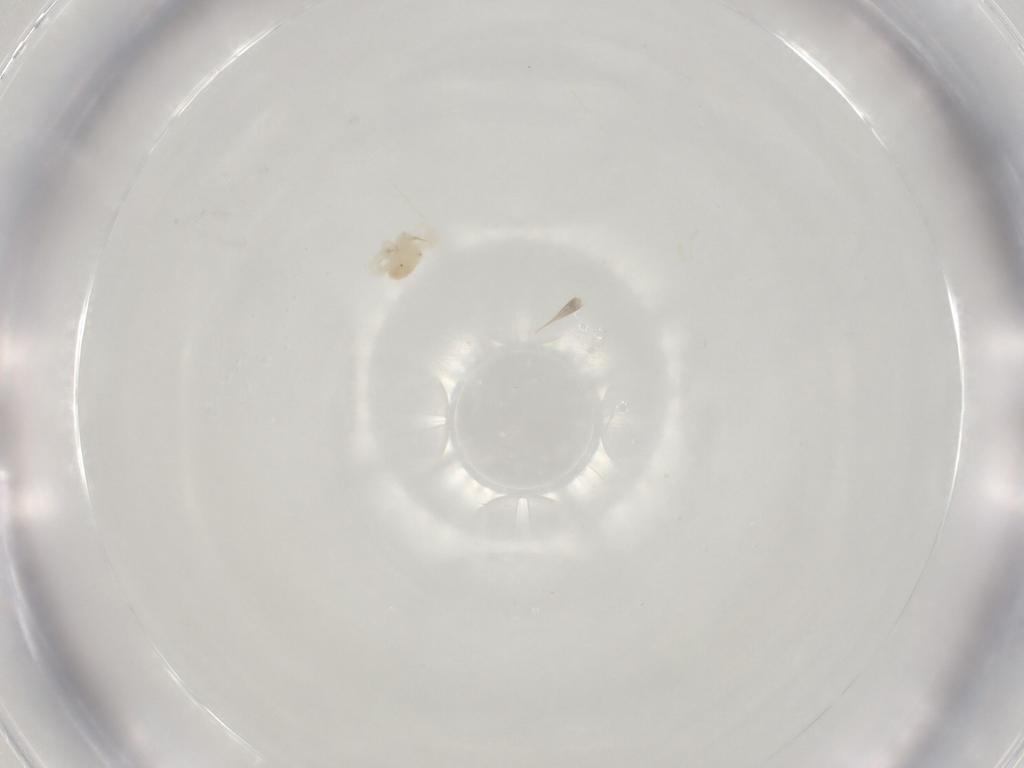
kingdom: Animalia
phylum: Arthropoda
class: Arachnida
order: Trombidiformes
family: Anystidae
